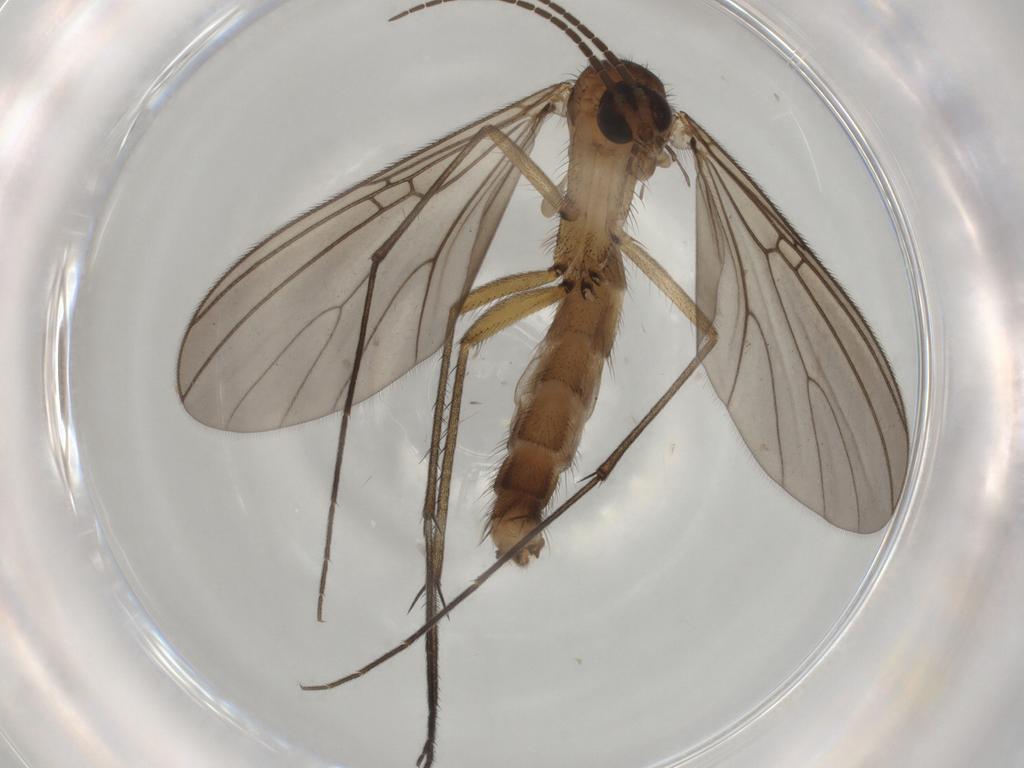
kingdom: Animalia
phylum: Arthropoda
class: Insecta
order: Diptera
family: Mycetophilidae
